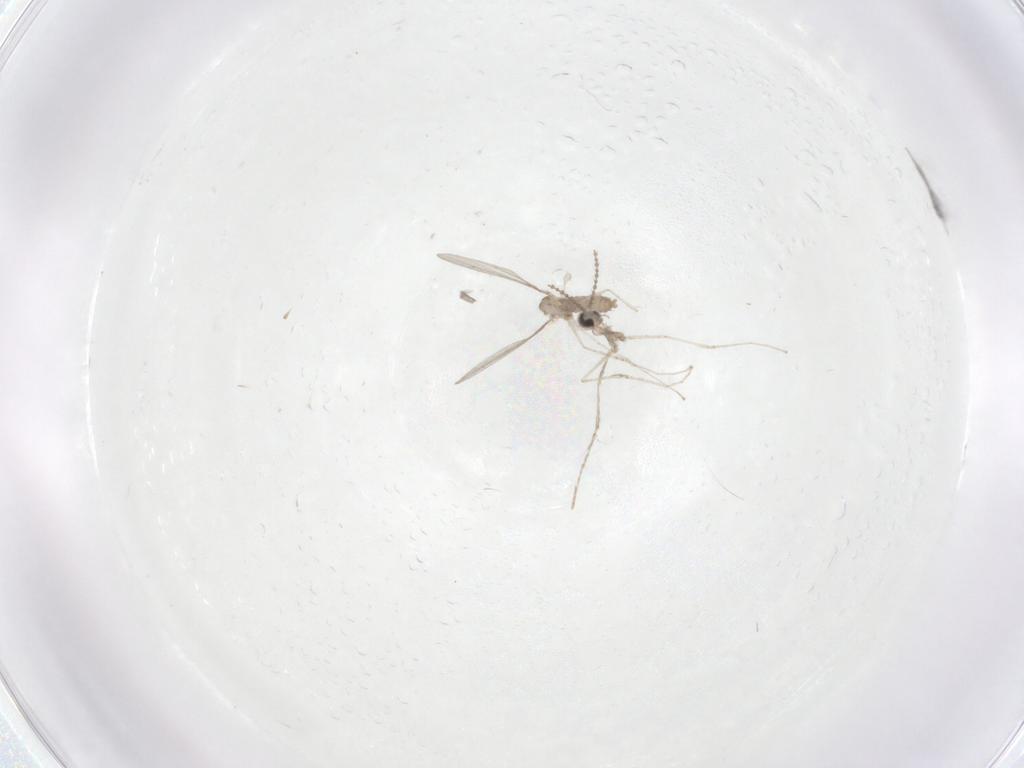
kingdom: Animalia
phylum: Arthropoda
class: Insecta
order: Diptera
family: Cecidomyiidae
